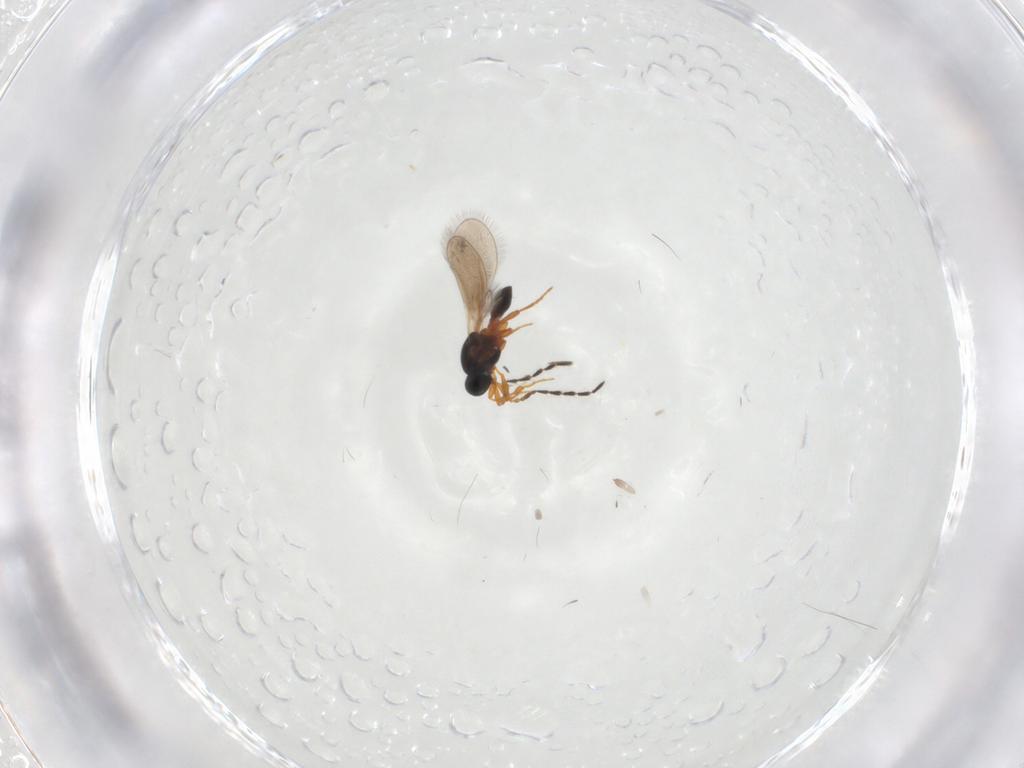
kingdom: Animalia
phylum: Arthropoda
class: Insecta
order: Hymenoptera
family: Platygastridae
